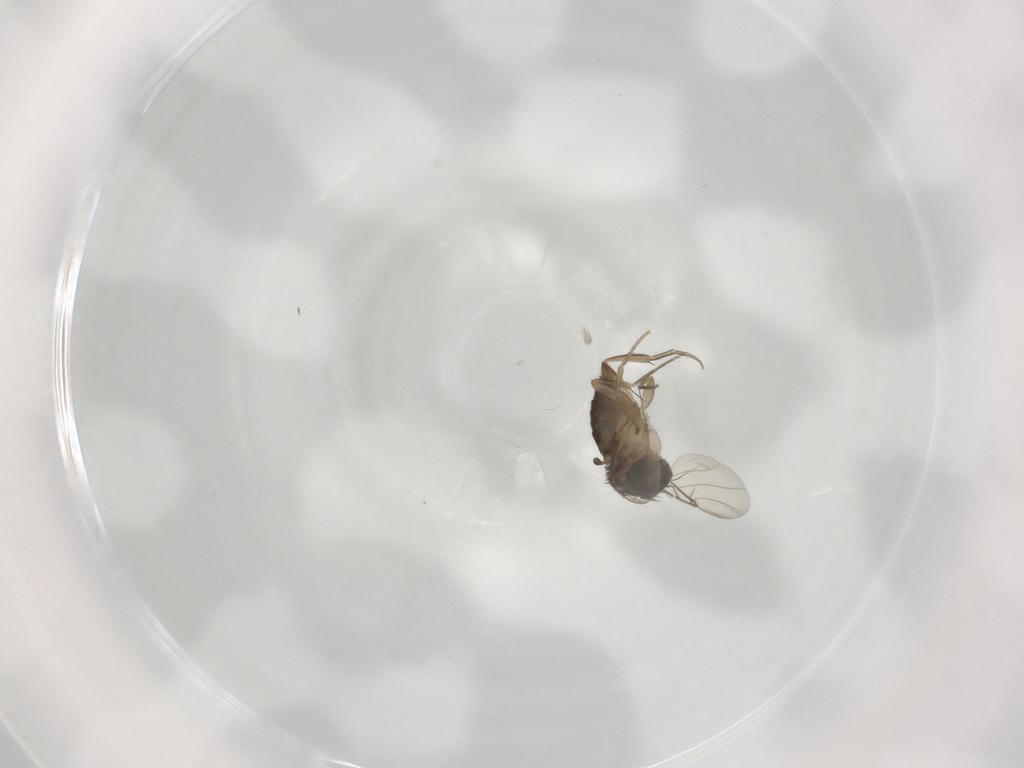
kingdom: Animalia
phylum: Arthropoda
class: Insecta
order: Diptera
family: Phoridae
